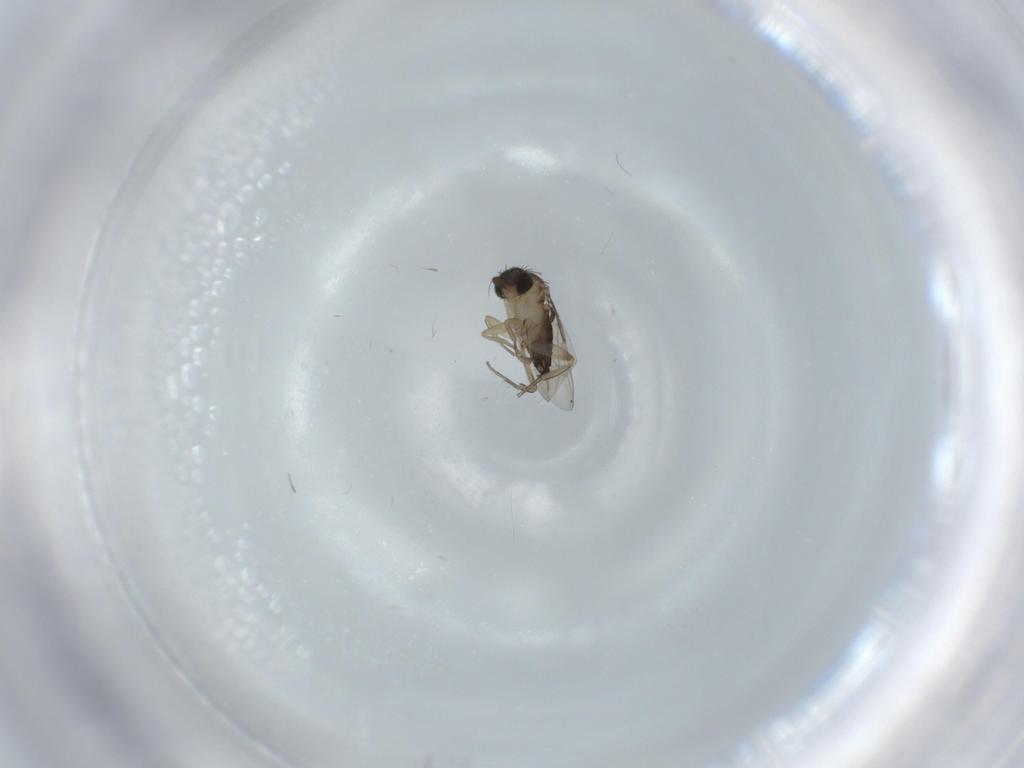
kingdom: Animalia
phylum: Arthropoda
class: Insecta
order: Diptera
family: Phoridae
